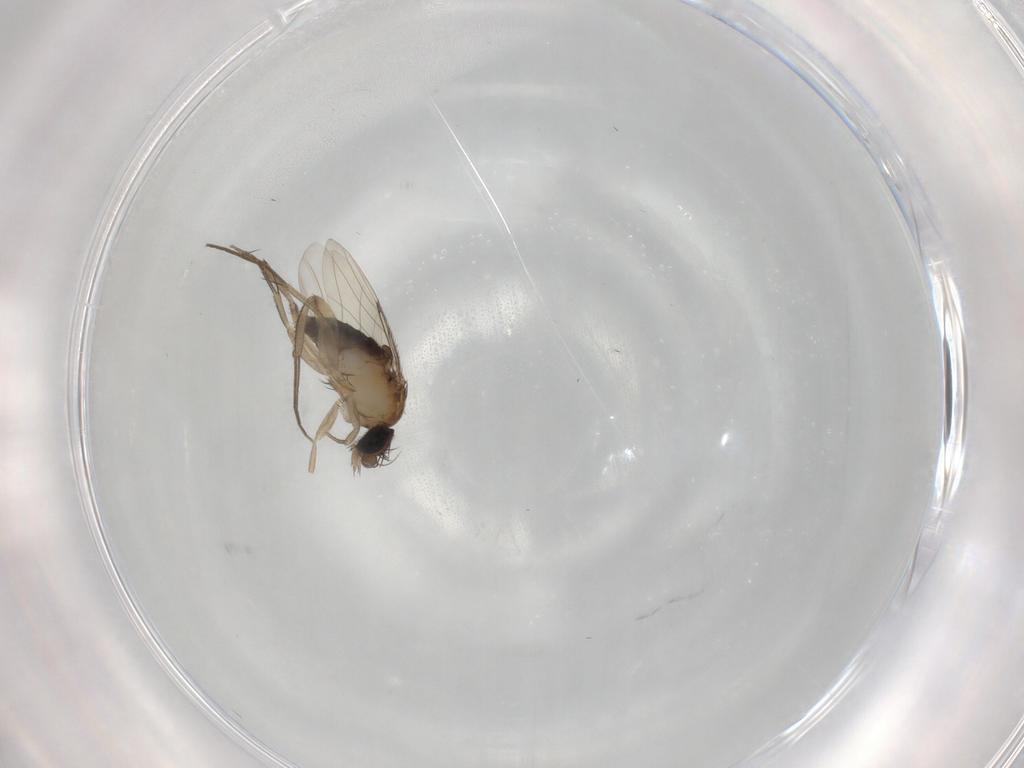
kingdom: Animalia
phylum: Arthropoda
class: Insecta
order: Diptera
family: Phoridae
